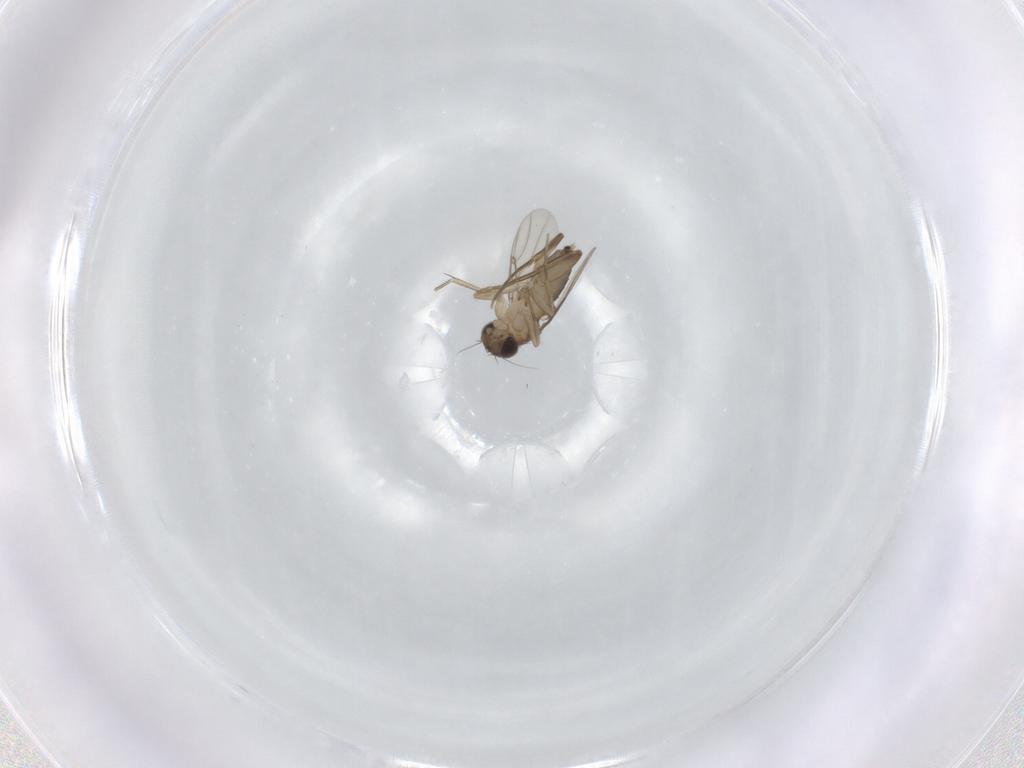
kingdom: Animalia
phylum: Arthropoda
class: Insecta
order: Diptera
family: Phoridae
